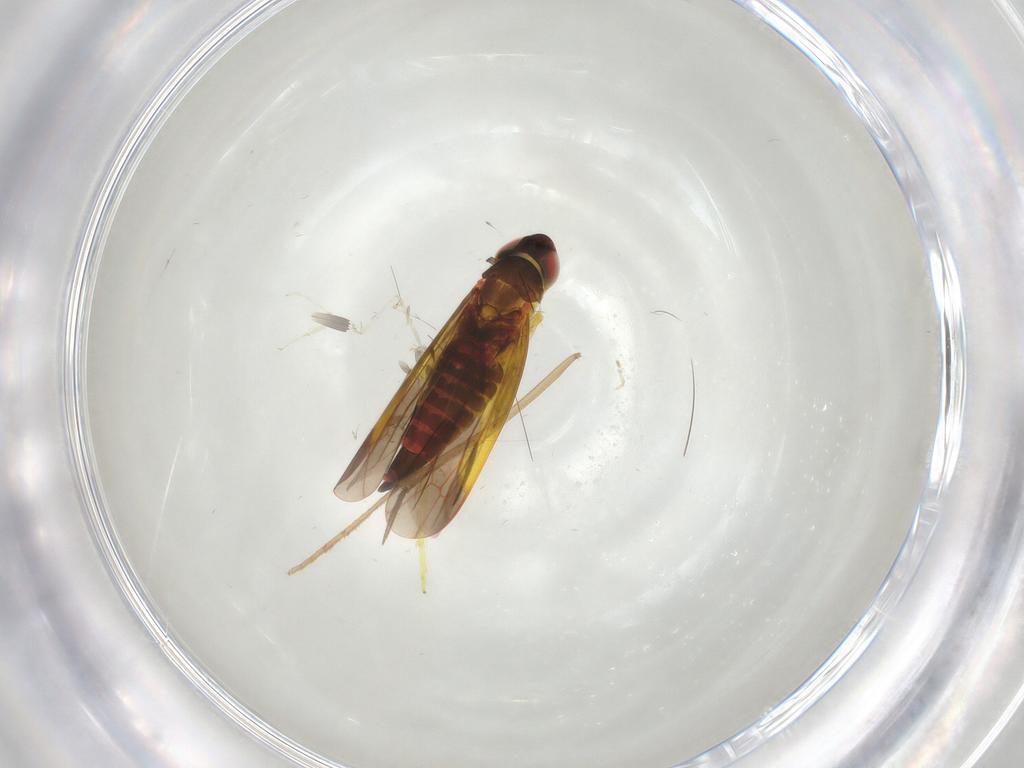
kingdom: Animalia
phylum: Arthropoda
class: Insecta
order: Hemiptera
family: Cicadellidae
